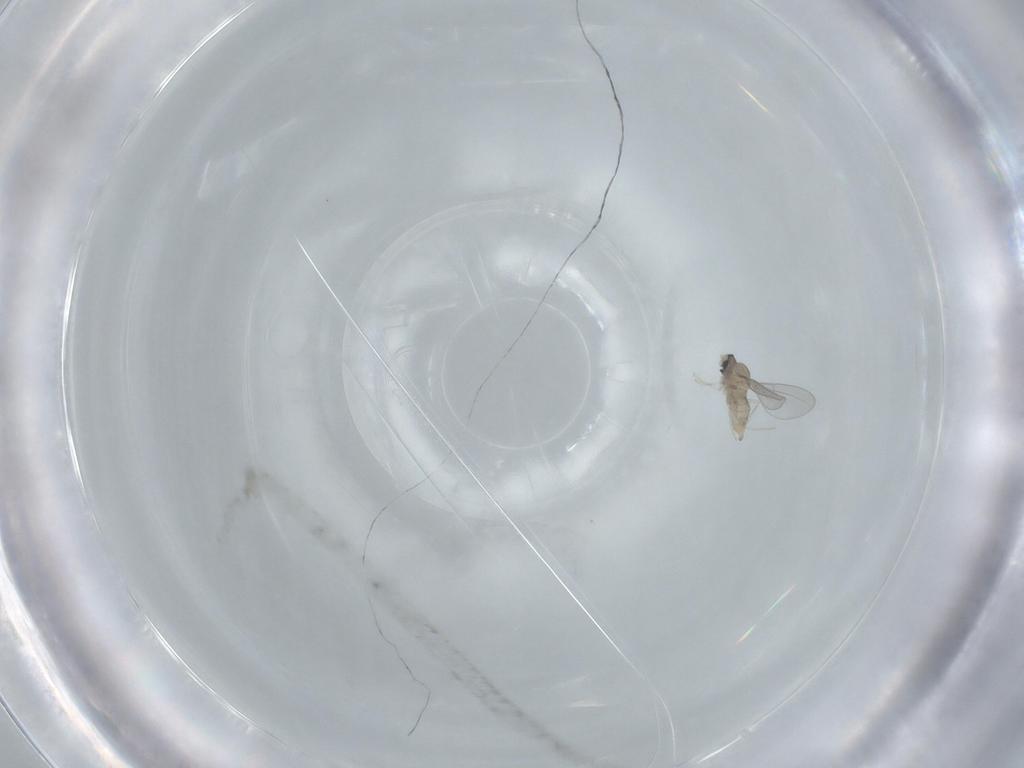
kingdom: Animalia
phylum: Arthropoda
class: Insecta
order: Diptera
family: Cecidomyiidae
